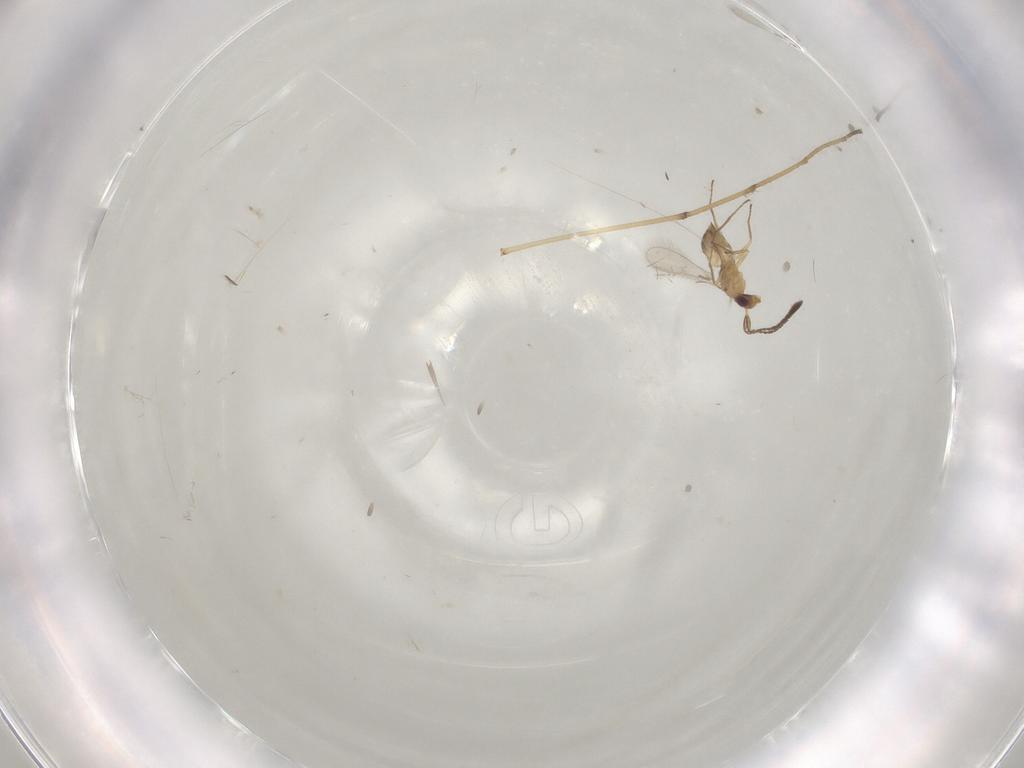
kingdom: Animalia
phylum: Arthropoda
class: Insecta
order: Hymenoptera
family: Mymaridae
